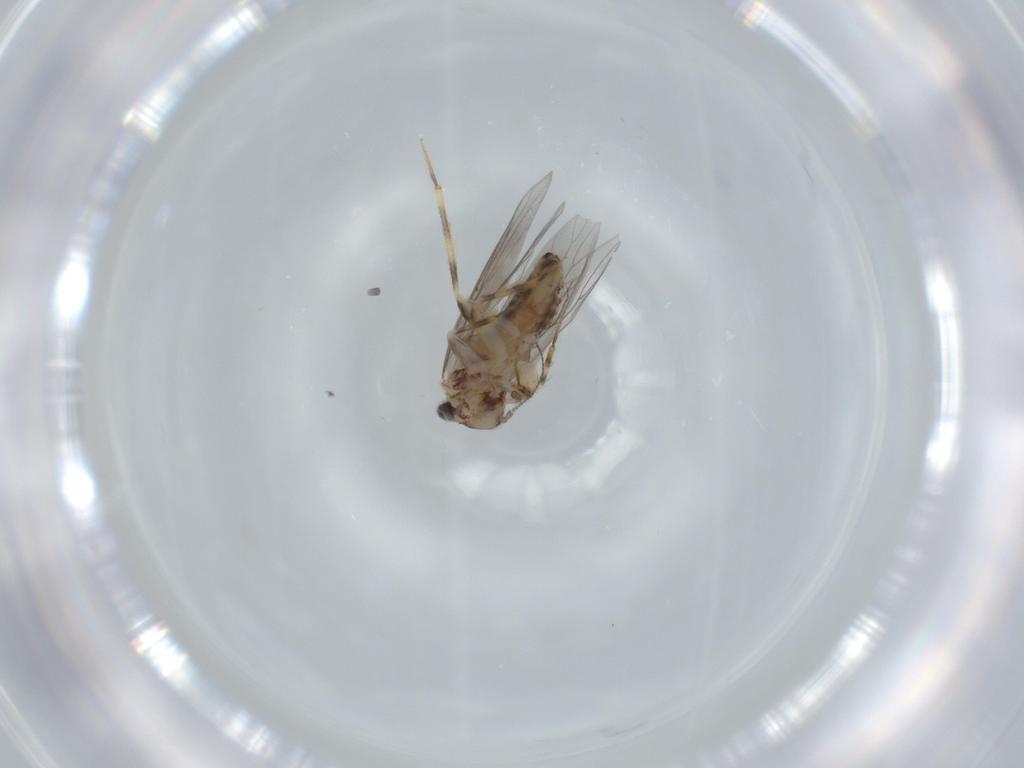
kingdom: Animalia
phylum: Arthropoda
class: Insecta
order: Psocodea
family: Lepidopsocidae
